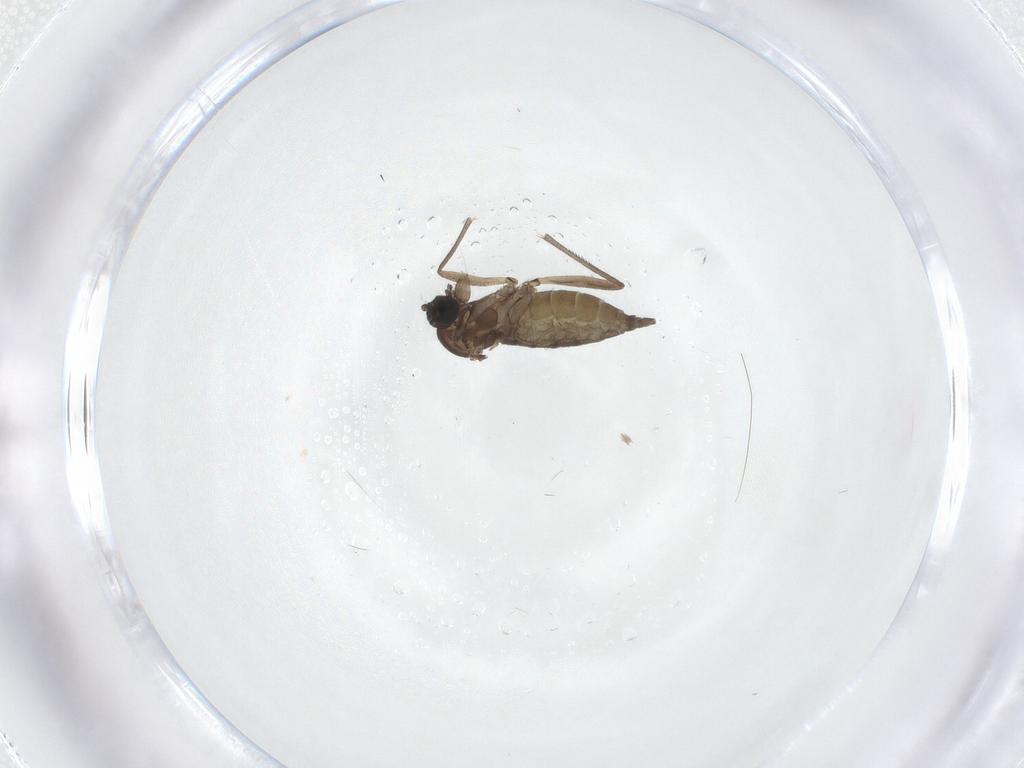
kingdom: Animalia
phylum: Arthropoda
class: Insecta
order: Diptera
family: Sciaridae
